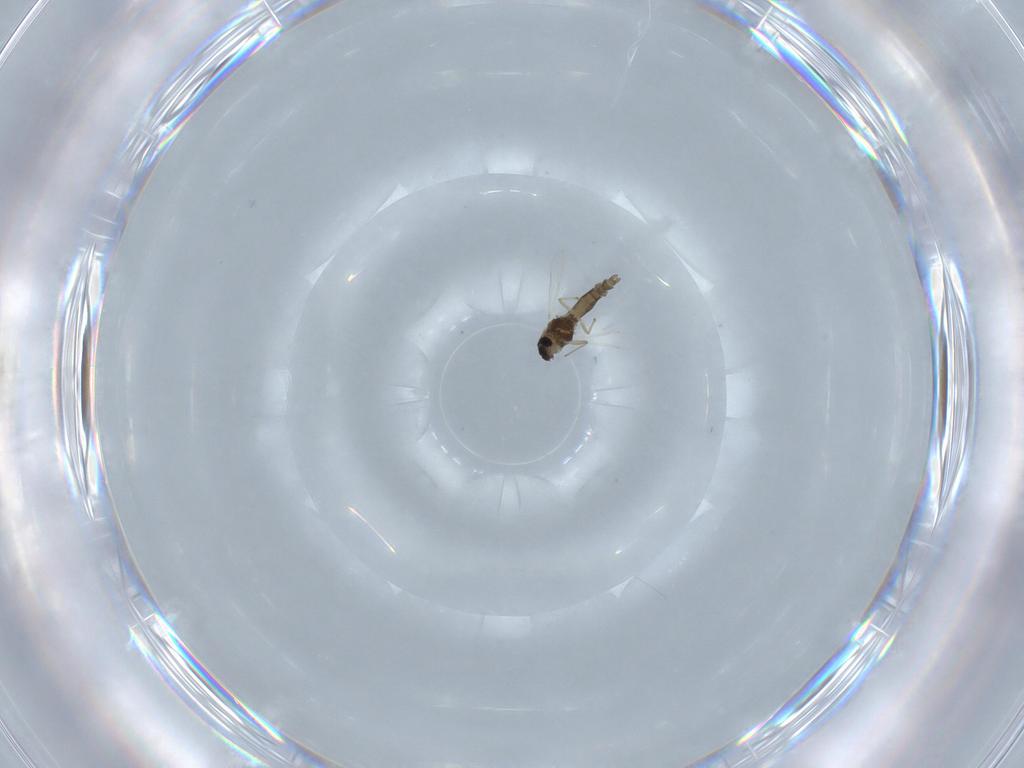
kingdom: Animalia
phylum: Arthropoda
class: Insecta
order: Diptera
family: Chironomidae
